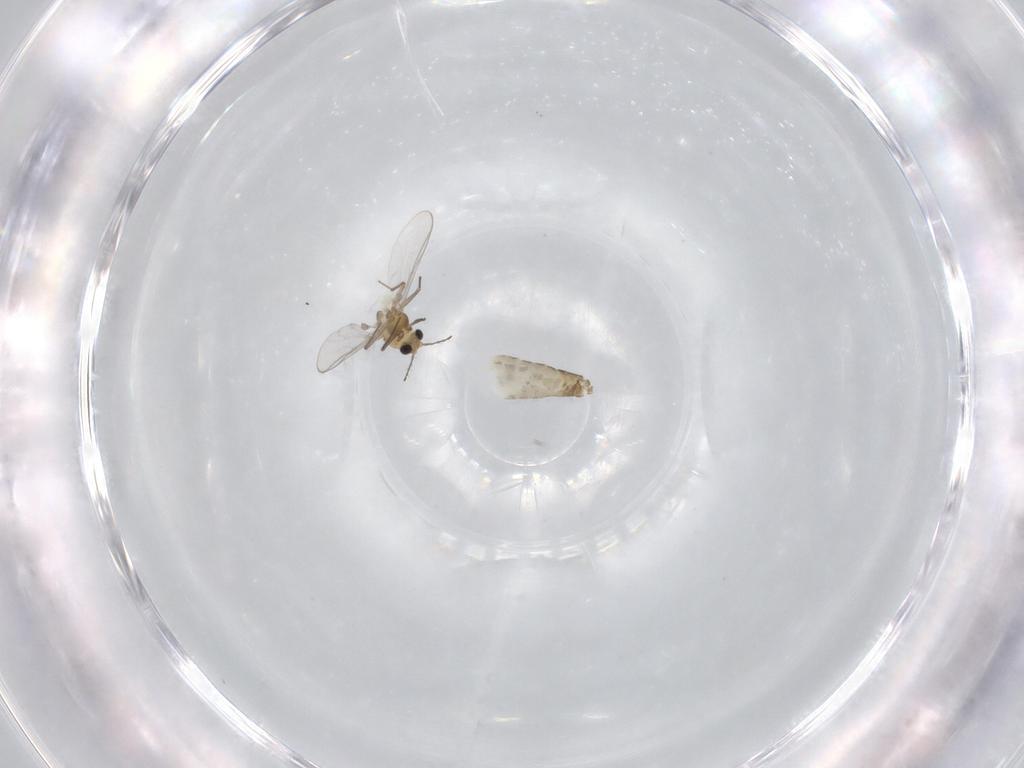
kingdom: Animalia
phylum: Arthropoda
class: Insecta
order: Diptera
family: Chironomidae
